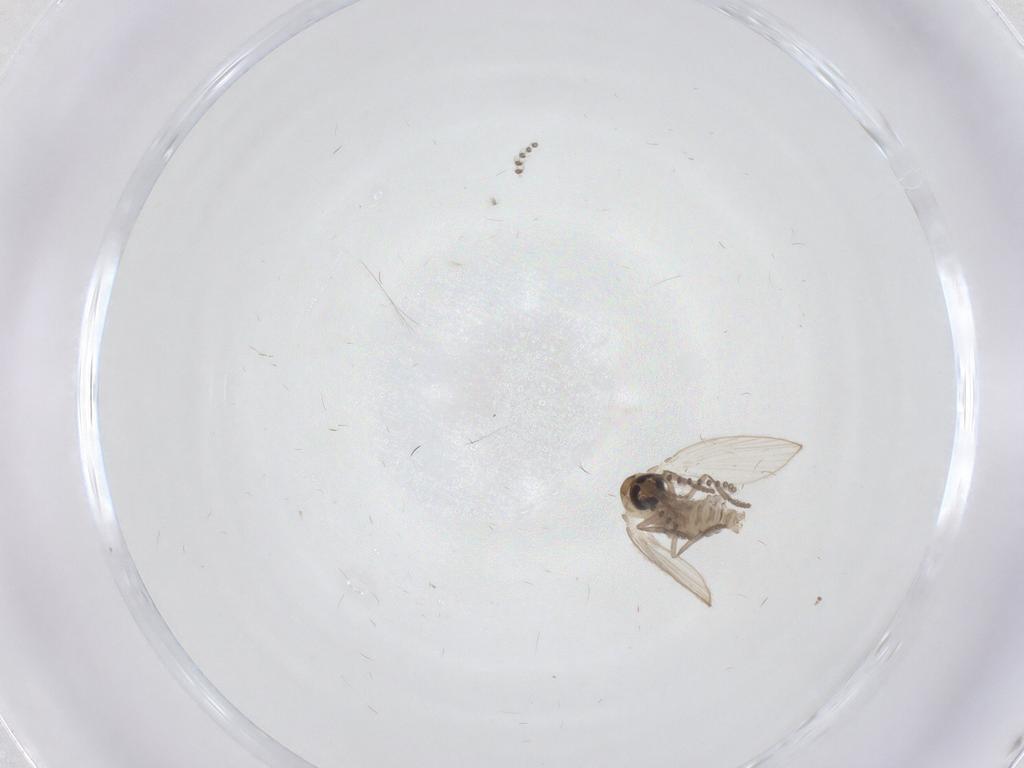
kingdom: Animalia
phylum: Arthropoda
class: Insecta
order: Diptera
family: Psychodidae
